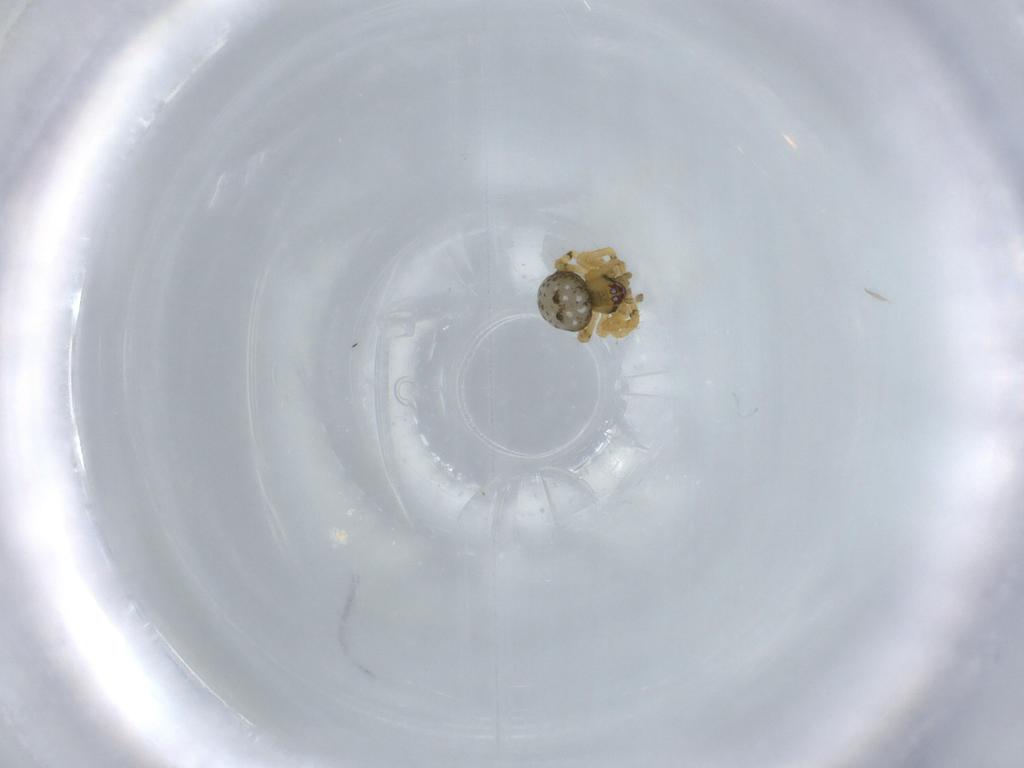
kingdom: Animalia
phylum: Arthropoda
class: Arachnida
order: Araneae
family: Theridiidae
